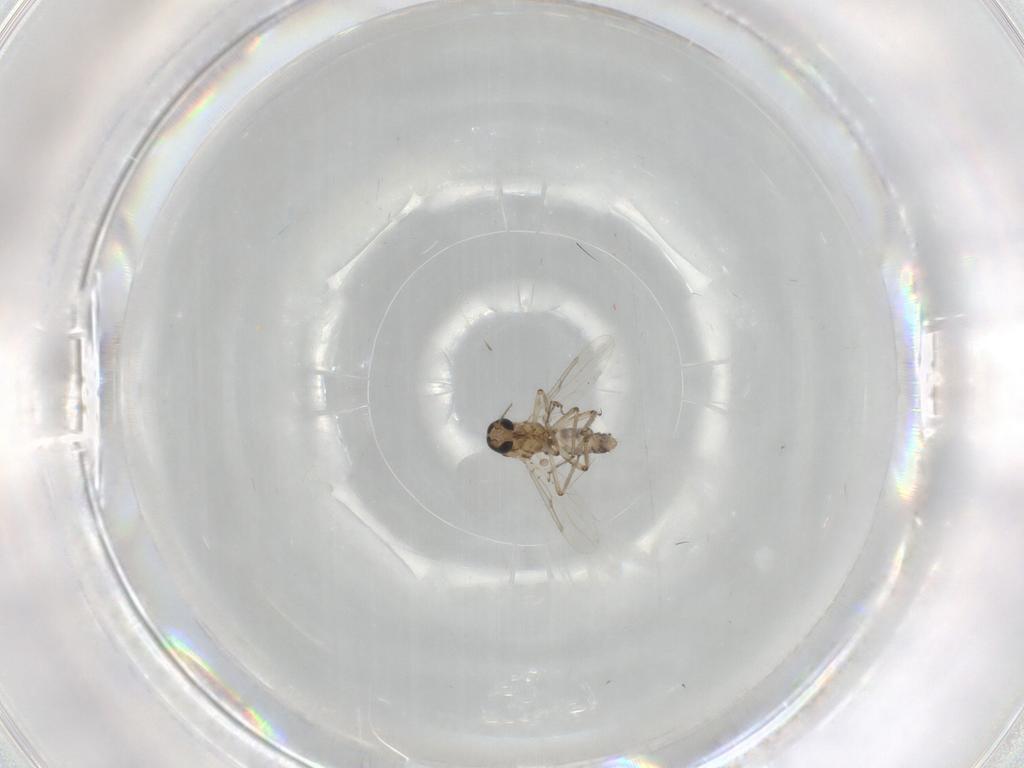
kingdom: Animalia
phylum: Arthropoda
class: Insecta
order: Diptera
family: Ceratopogonidae
